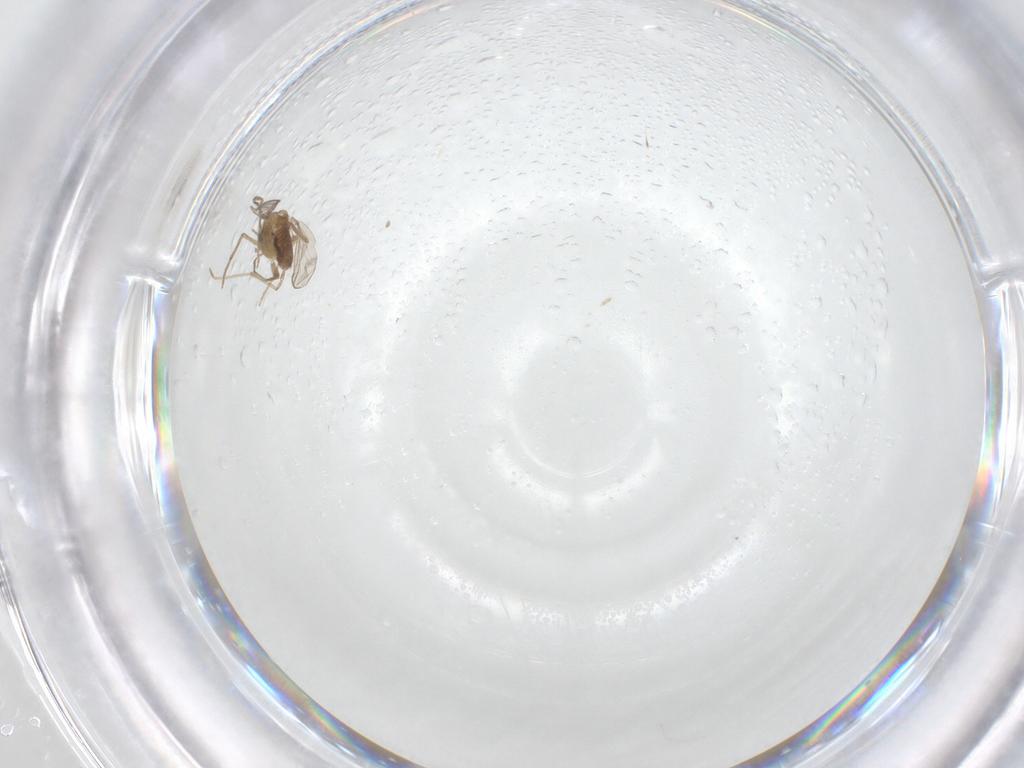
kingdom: Animalia
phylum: Arthropoda
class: Insecta
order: Diptera
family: Chironomidae
